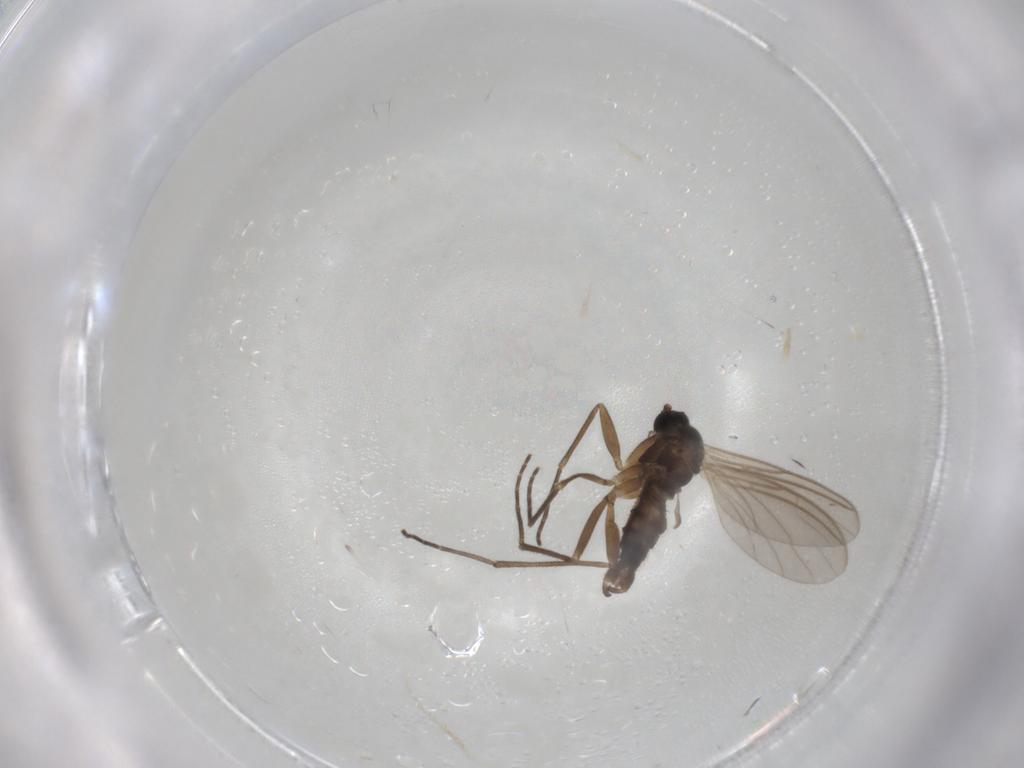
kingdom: Animalia
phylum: Arthropoda
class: Insecta
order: Diptera
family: Sciaridae
